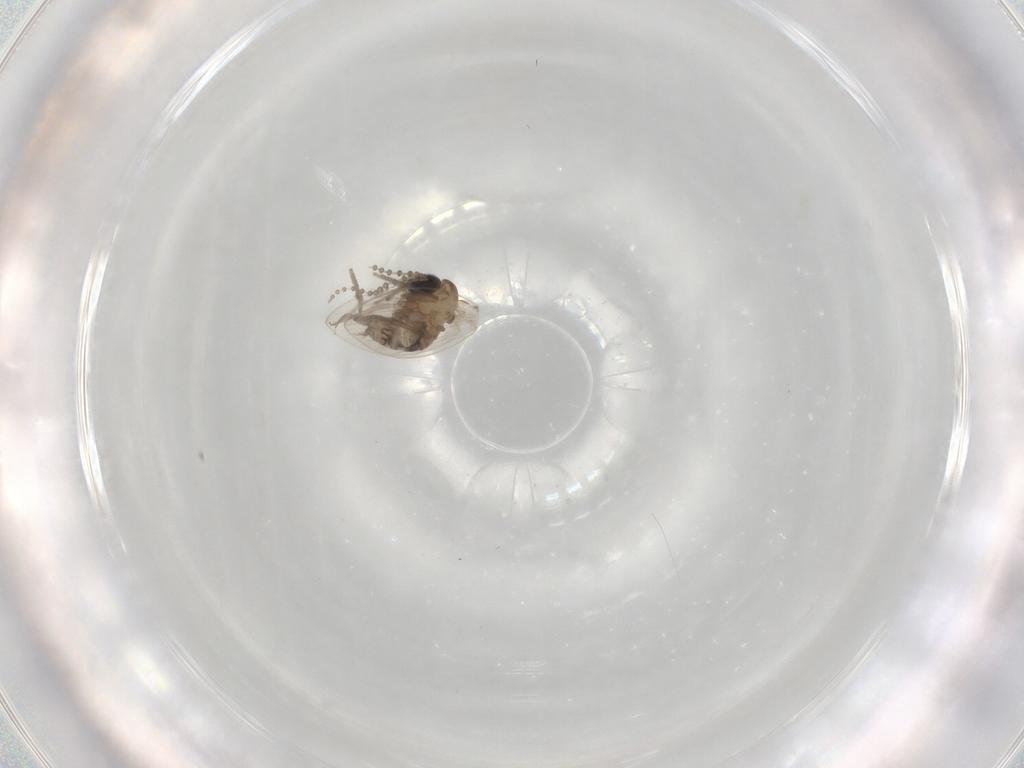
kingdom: Animalia
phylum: Arthropoda
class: Insecta
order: Diptera
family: Psychodidae
